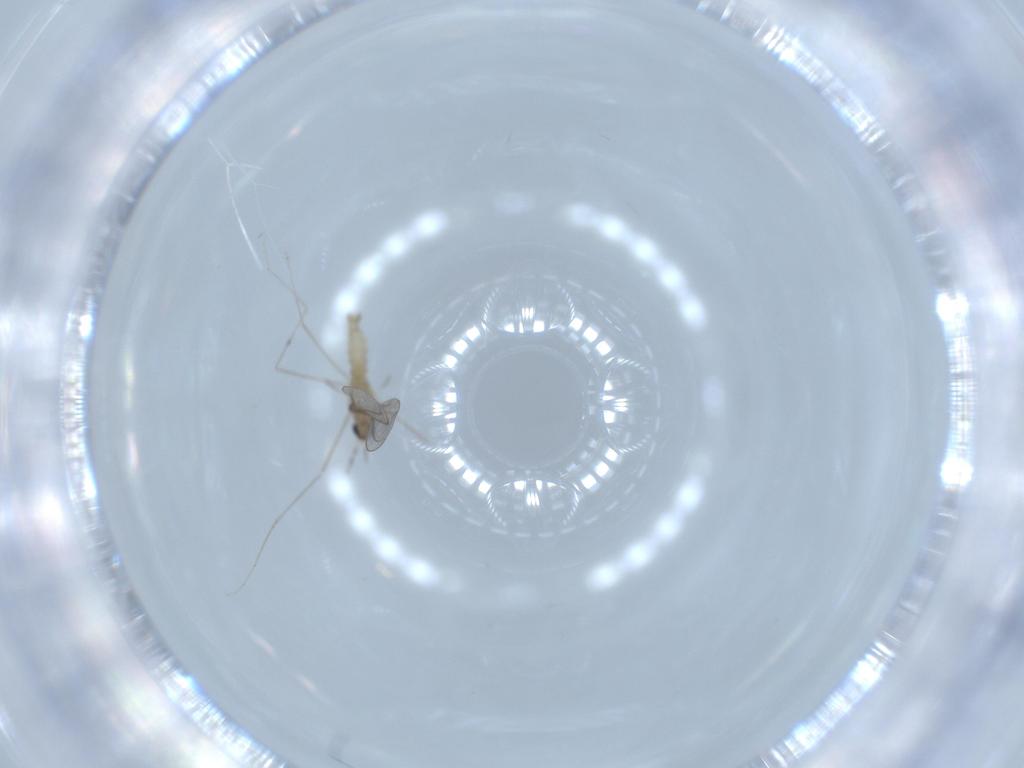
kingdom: Animalia
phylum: Arthropoda
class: Insecta
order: Diptera
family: Cecidomyiidae
